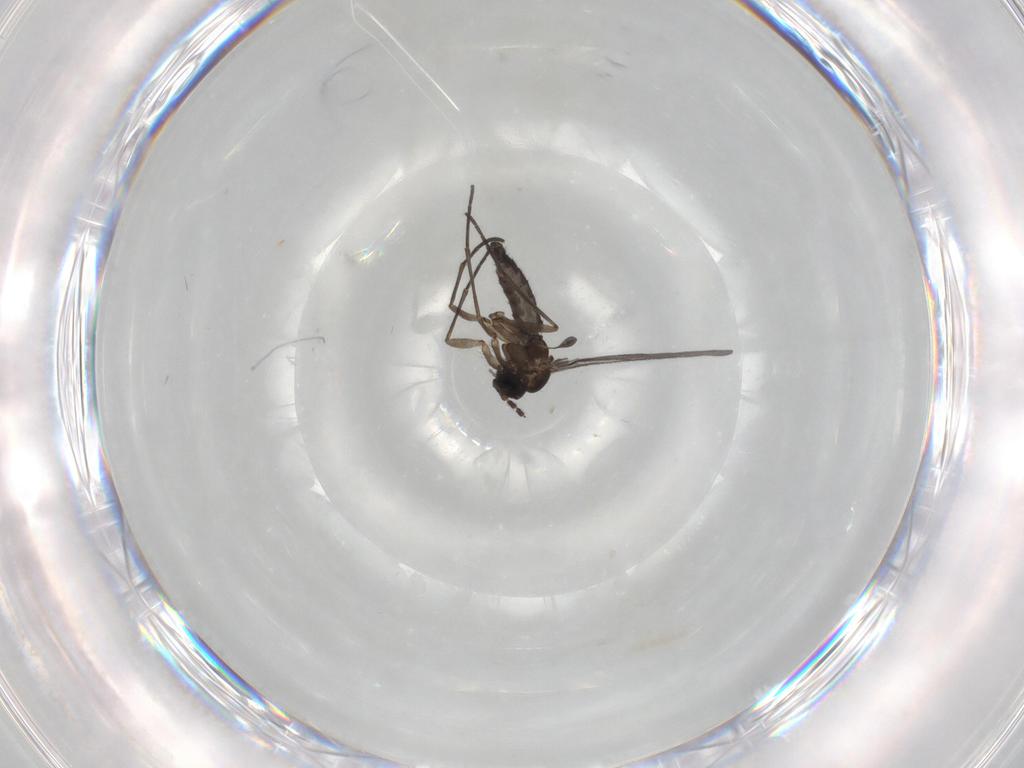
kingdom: Animalia
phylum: Arthropoda
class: Insecta
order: Diptera
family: Sciaridae
